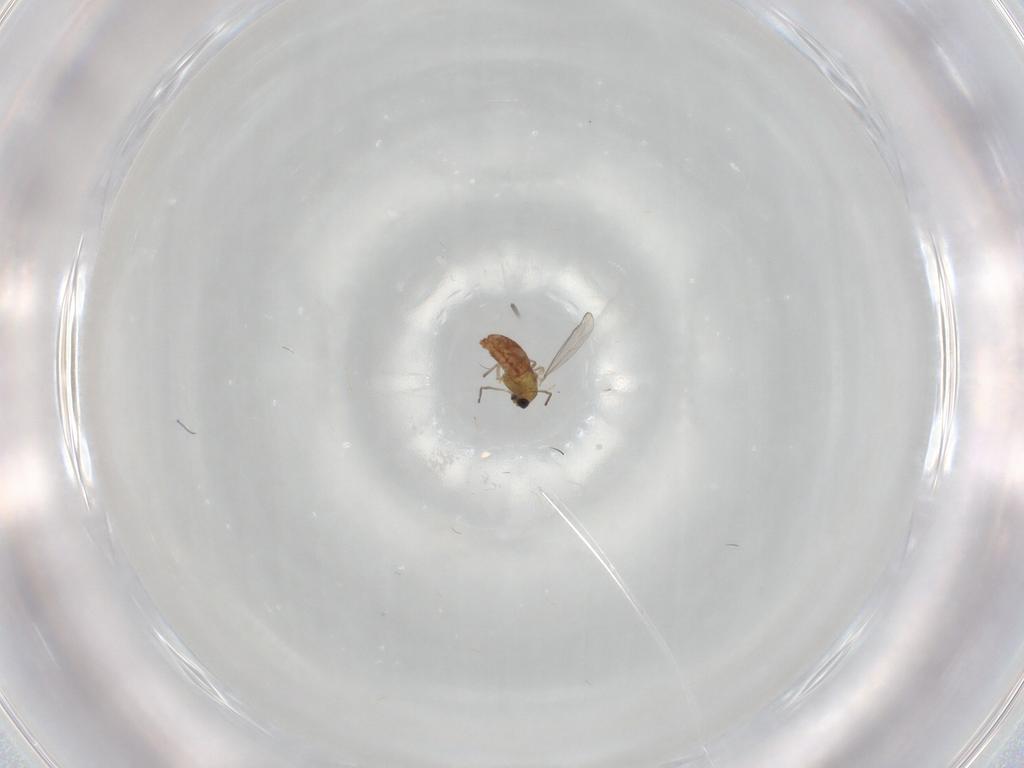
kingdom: Animalia
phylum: Arthropoda
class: Insecta
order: Diptera
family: Chironomidae
